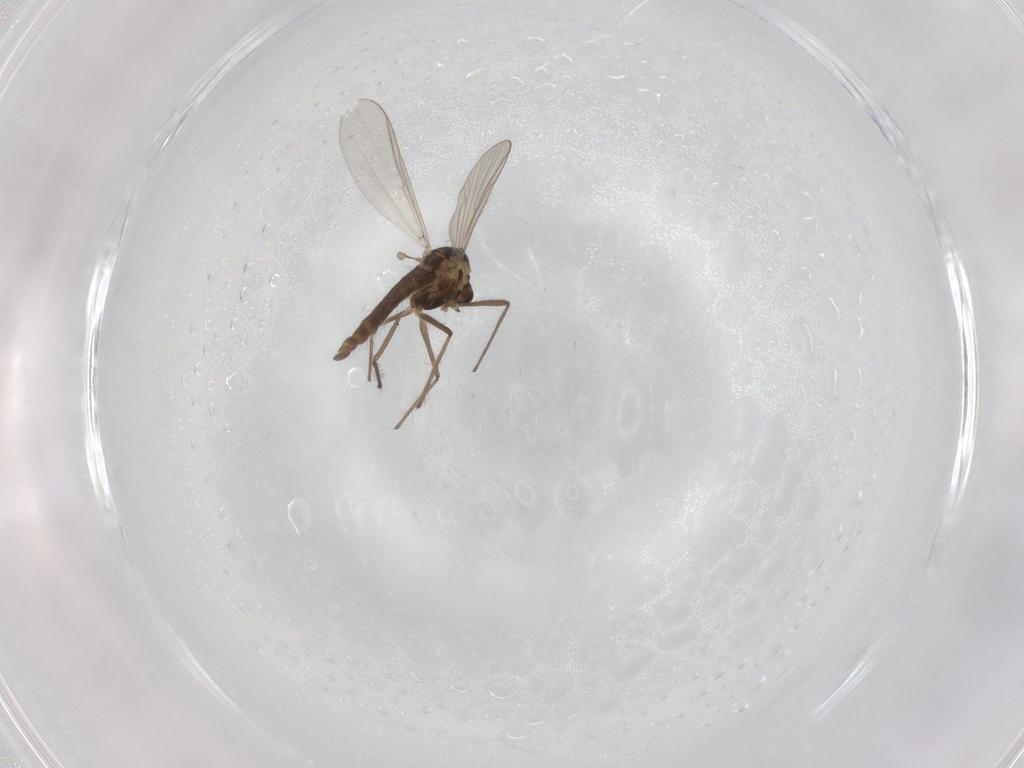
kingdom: Animalia
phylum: Arthropoda
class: Insecta
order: Diptera
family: Chironomidae
